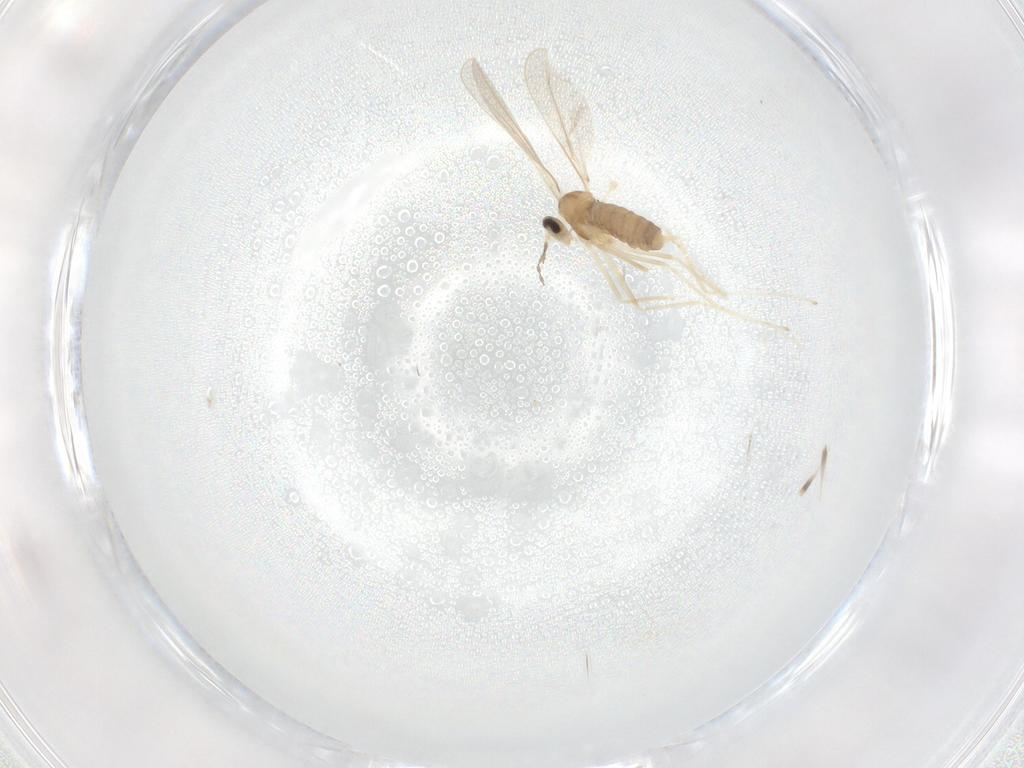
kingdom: Animalia
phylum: Arthropoda
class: Insecta
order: Diptera
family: Cecidomyiidae
